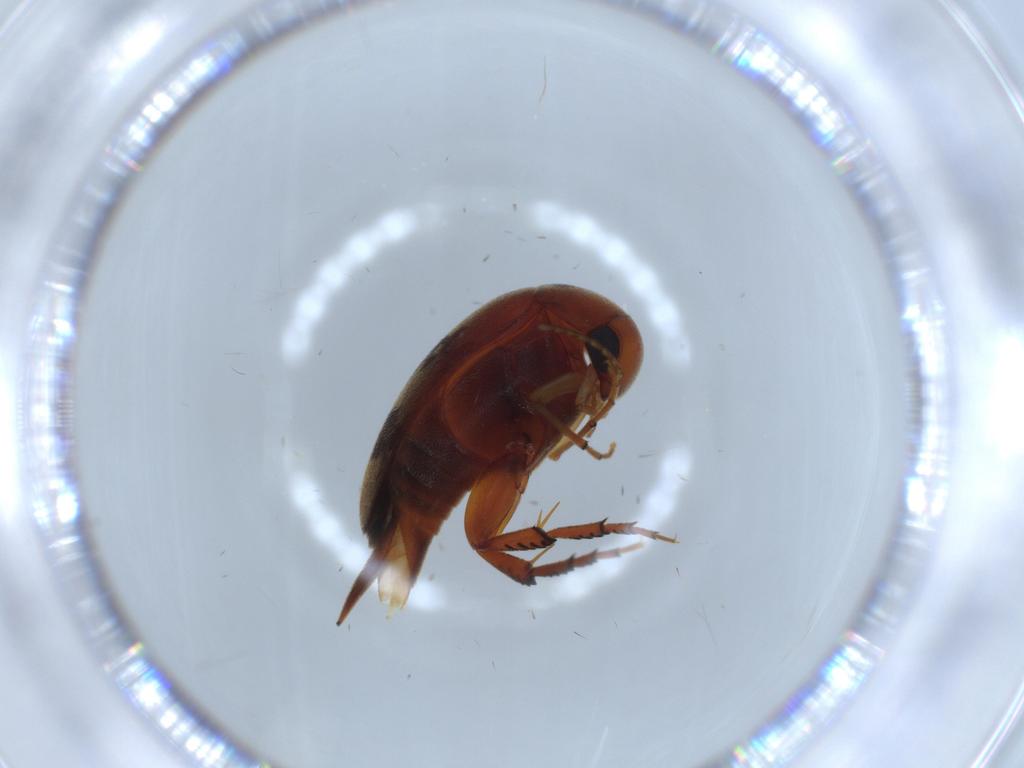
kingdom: Animalia
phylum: Arthropoda
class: Insecta
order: Coleoptera
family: Chrysomelidae
